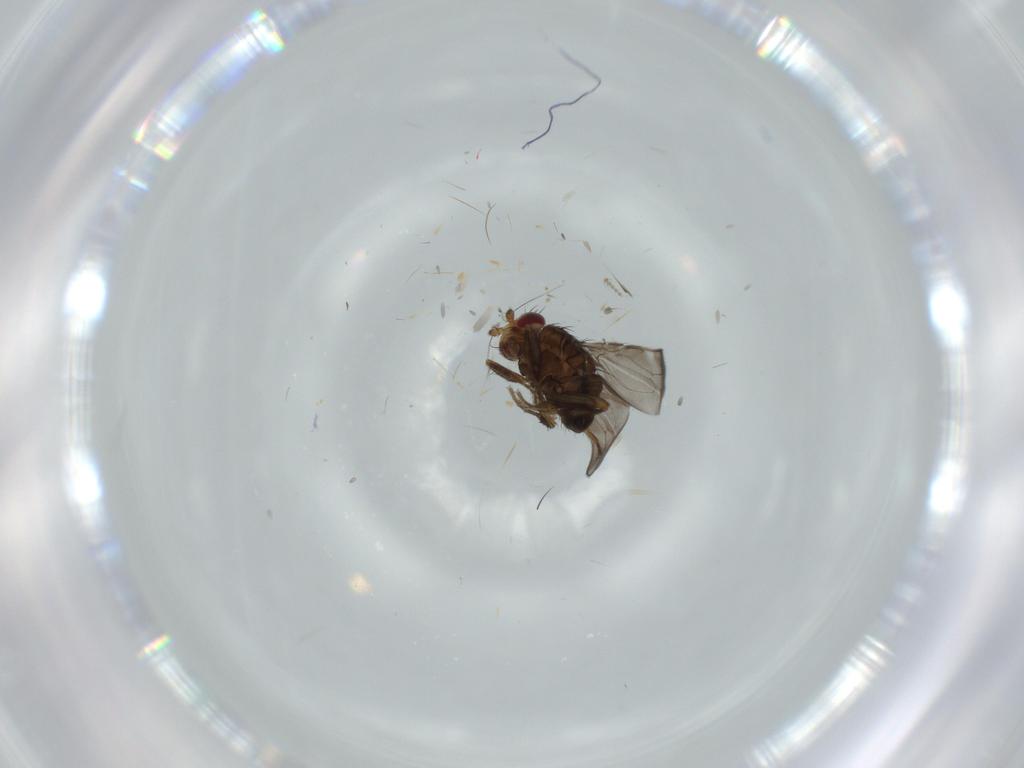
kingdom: Animalia
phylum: Arthropoda
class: Insecta
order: Diptera
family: Sphaeroceridae
